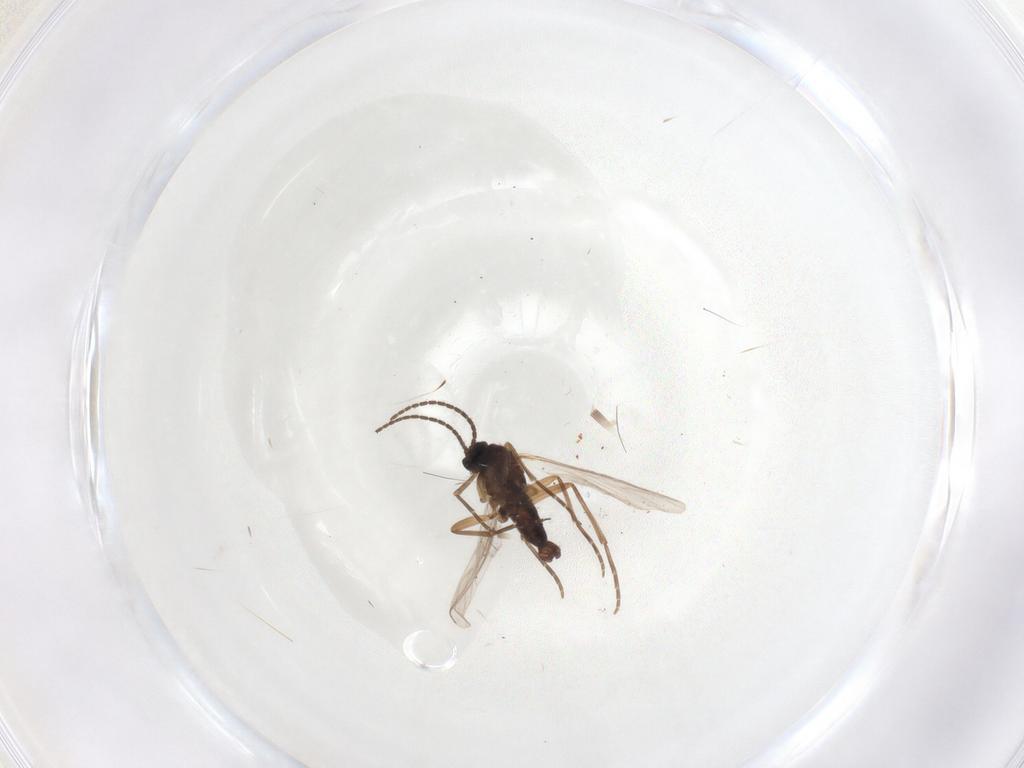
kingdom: Animalia
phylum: Arthropoda
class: Insecta
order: Diptera
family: Sciaridae
